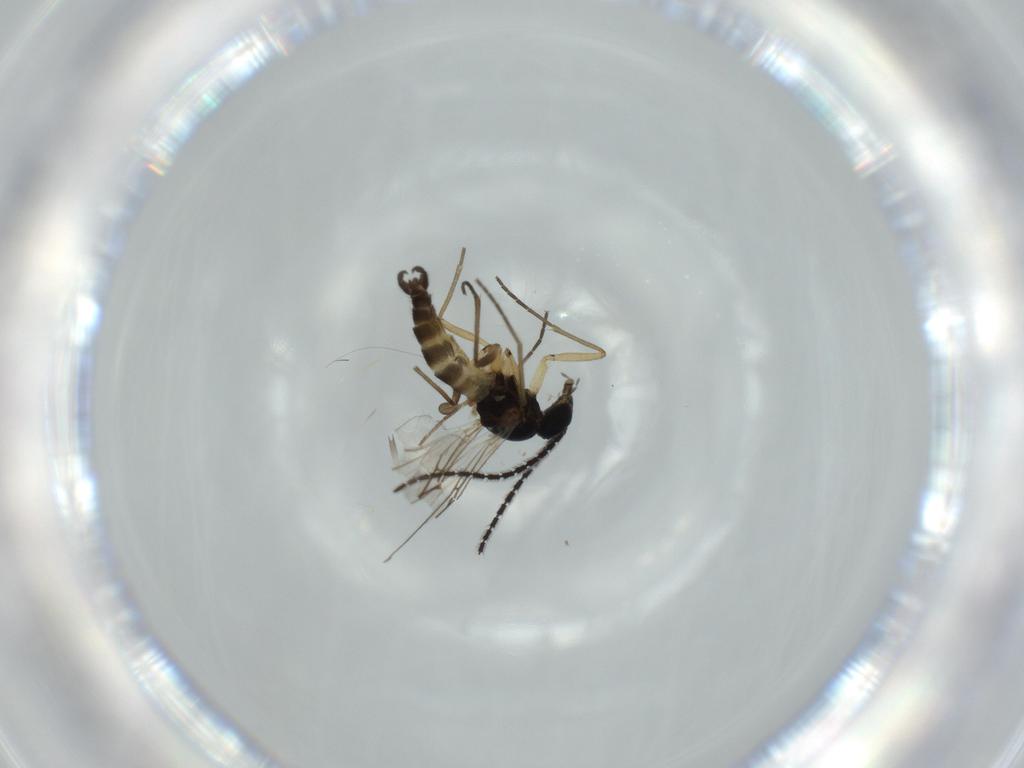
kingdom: Animalia
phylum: Arthropoda
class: Insecta
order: Diptera
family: Sciaridae
